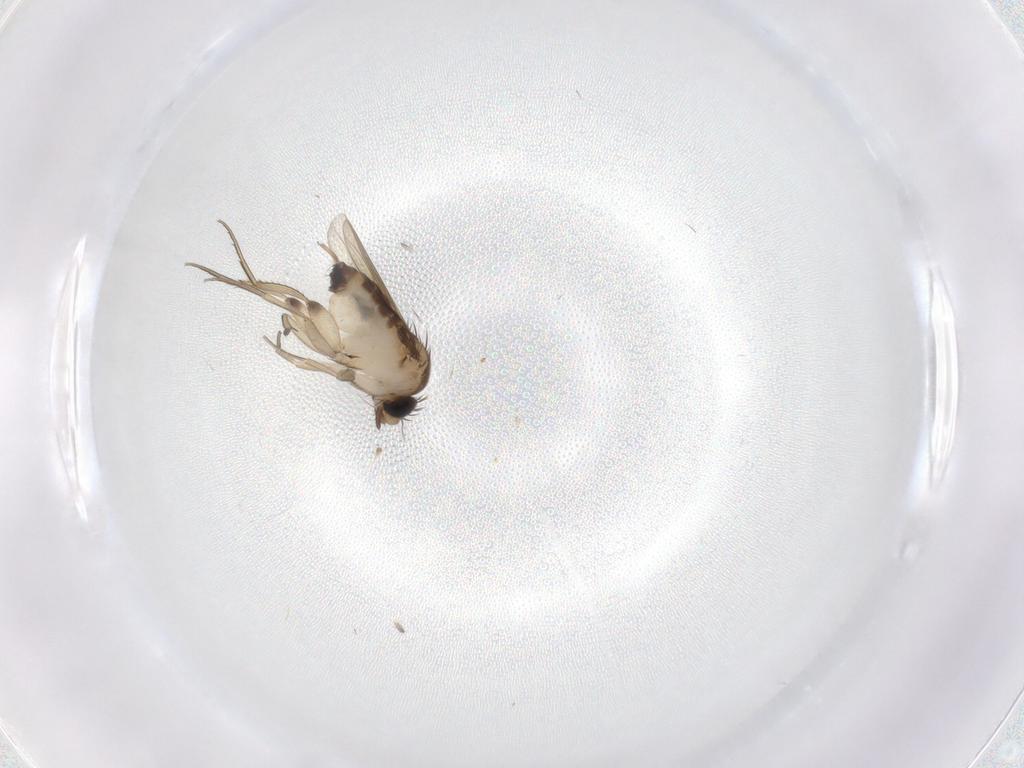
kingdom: Animalia
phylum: Arthropoda
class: Insecta
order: Diptera
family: Phoridae
